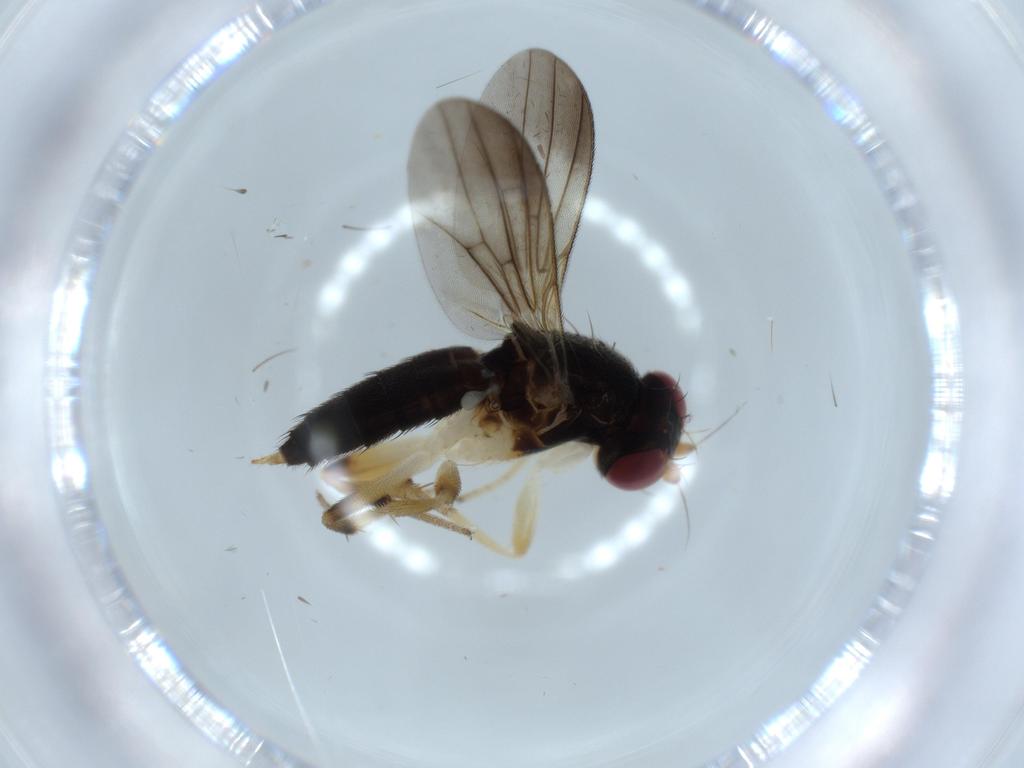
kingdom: Animalia
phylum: Arthropoda
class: Insecta
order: Diptera
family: Clusiidae
